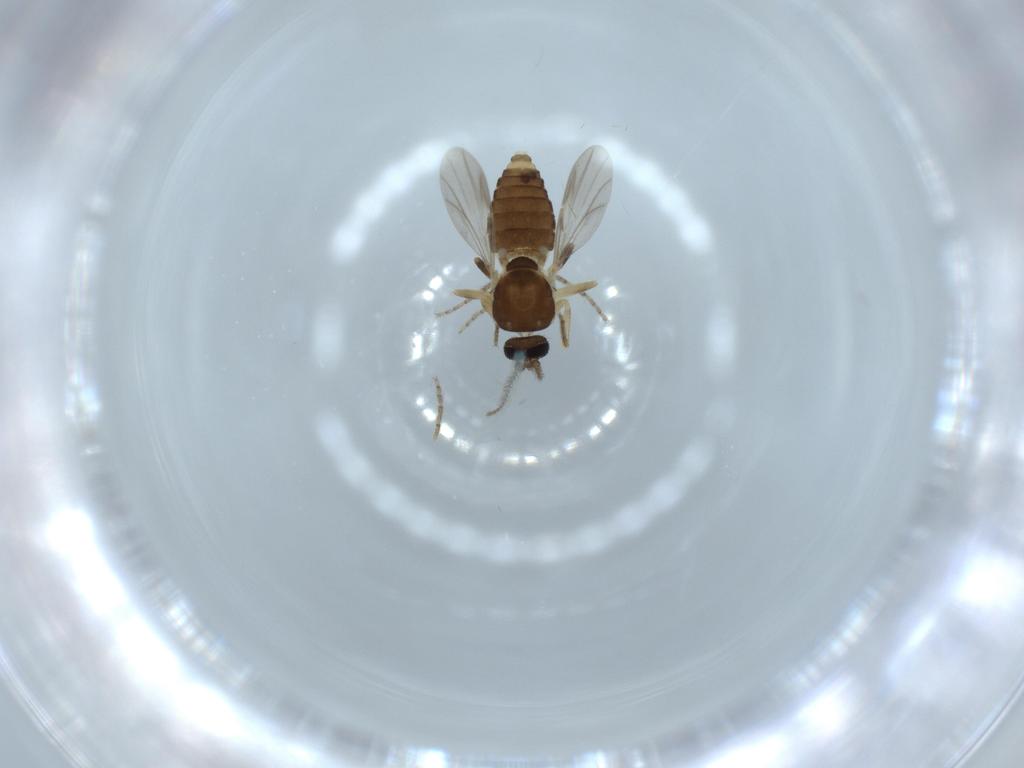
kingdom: Animalia
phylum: Arthropoda
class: Insecta
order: Diptera
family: Ceratopogonidae
